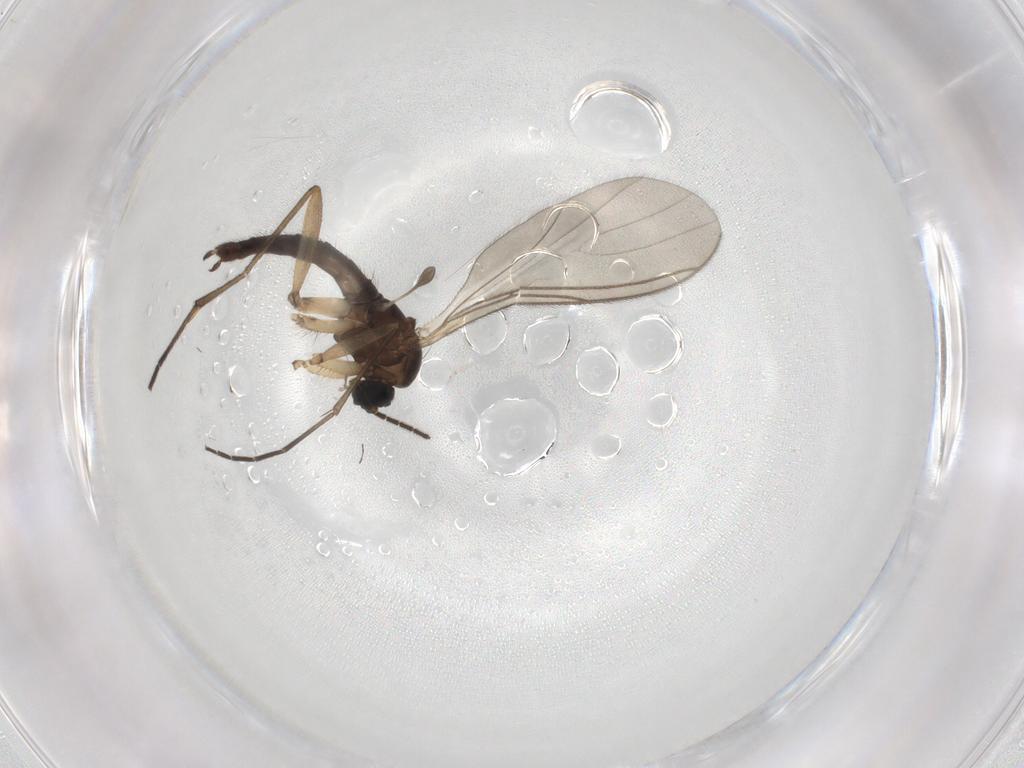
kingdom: Animalia
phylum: Arthropoda
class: Insecta
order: Diptera
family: Sciaridae
